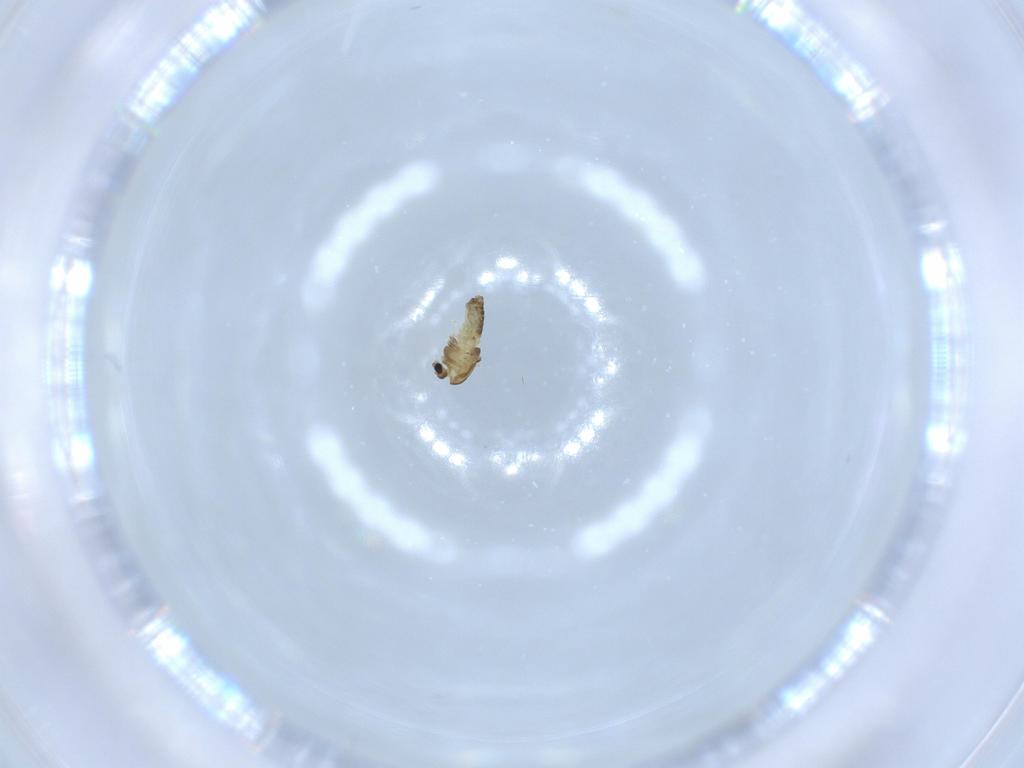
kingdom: Animalia
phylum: Arthropoda
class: Insecta
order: Diptera
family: Chironomidae
